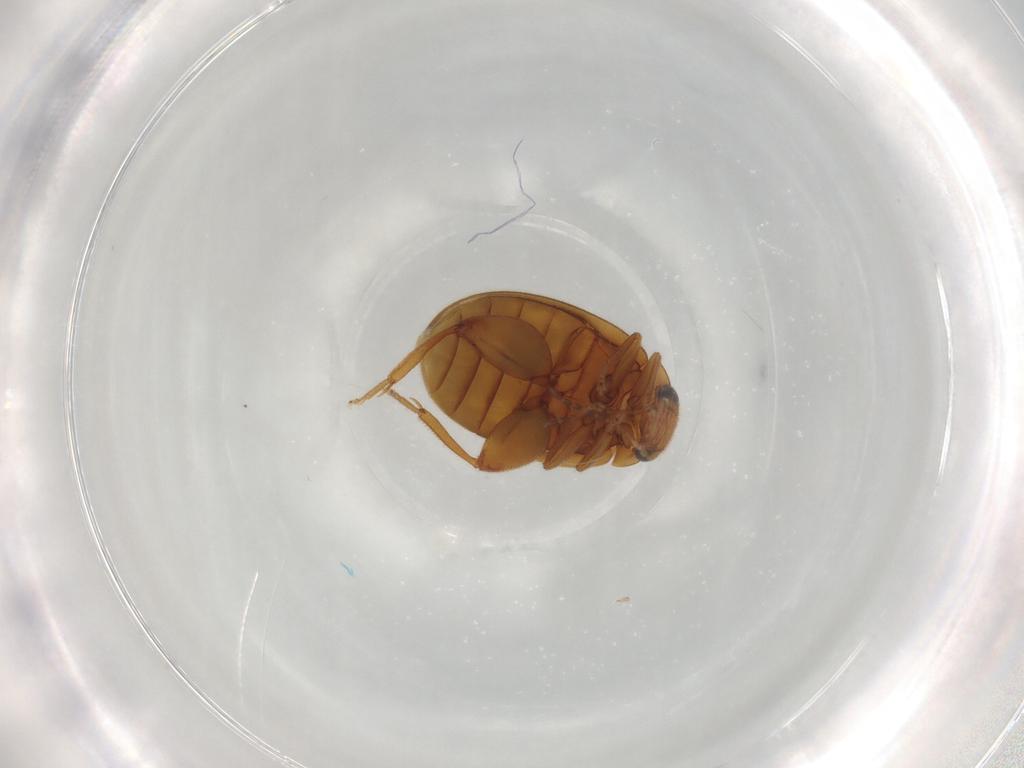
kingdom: Animalia
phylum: Arthropoda
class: Insecta
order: Coleoptera
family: Scirtidae
